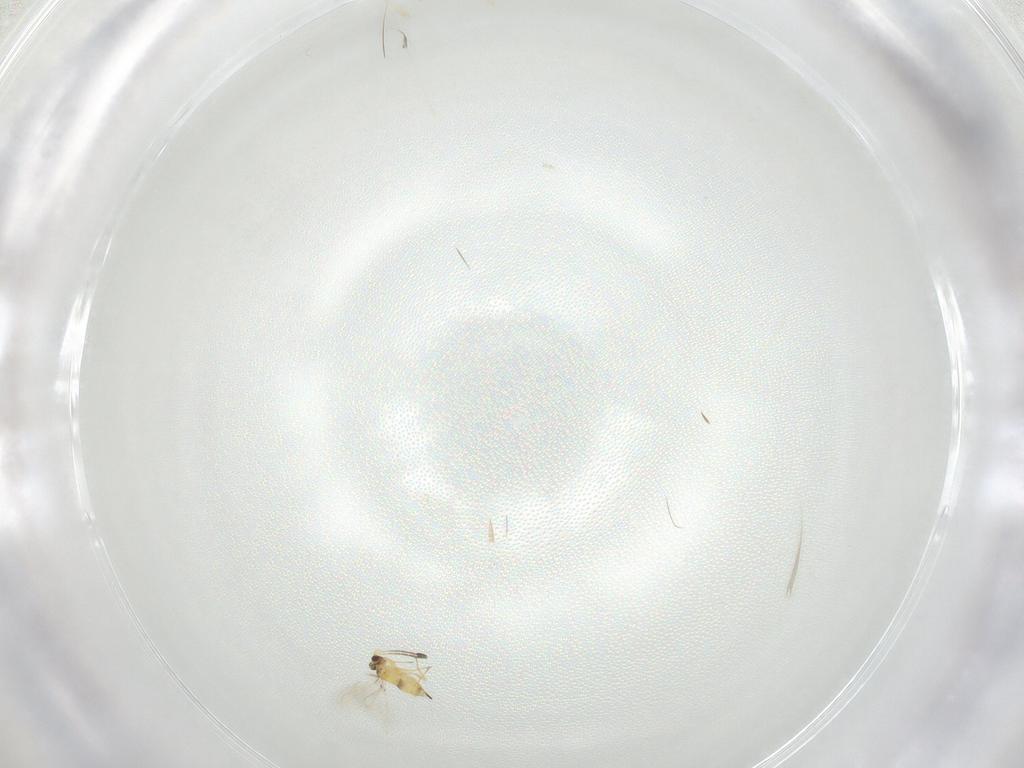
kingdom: Animalia
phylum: Arthropoda
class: Insecta
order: Hymenoptera
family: Mymaridae
